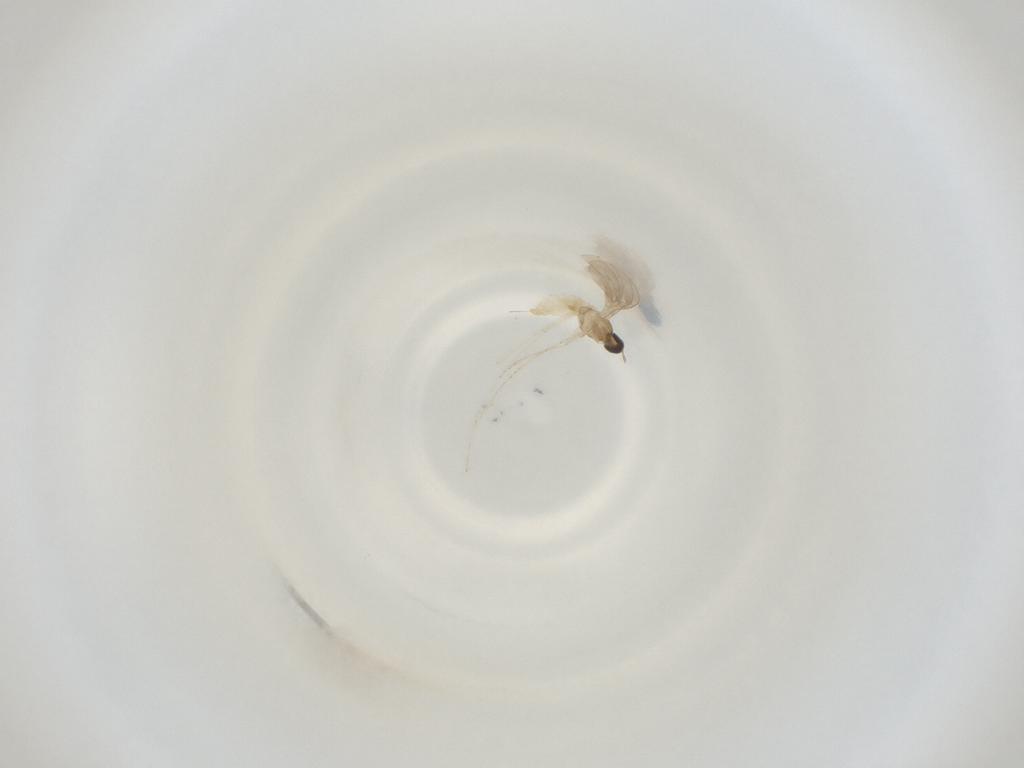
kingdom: Animalia
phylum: Arthropoda
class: Insecta
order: Diptera
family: Cecidomyiidae
